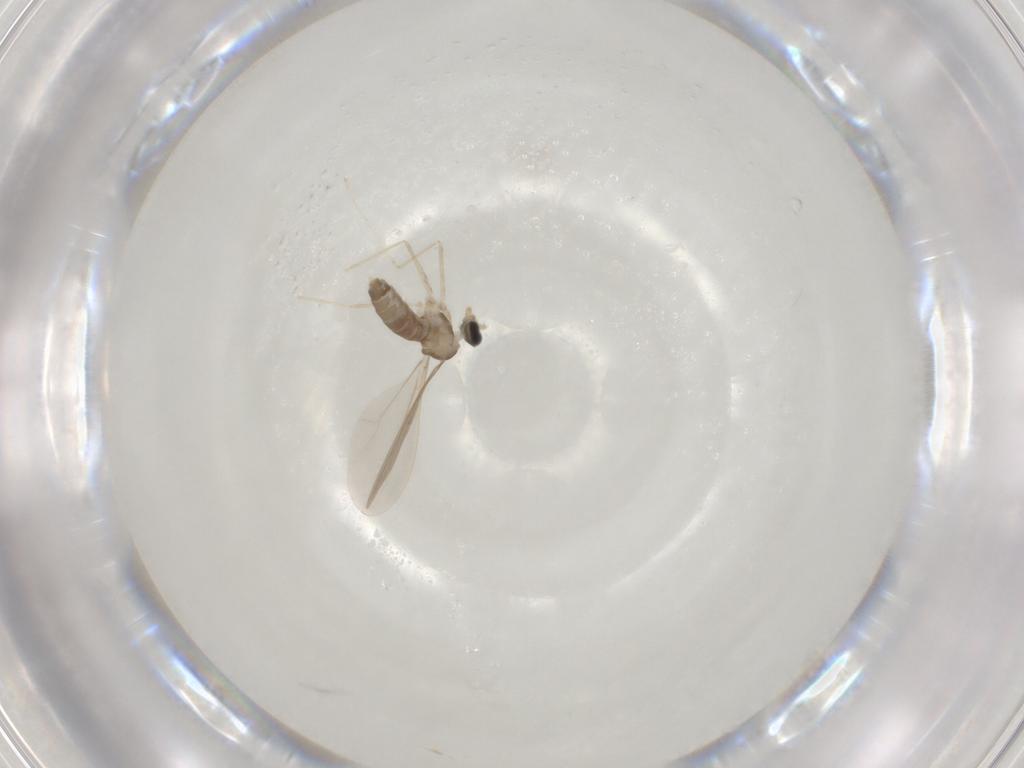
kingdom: Animalia
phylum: Arthropoda
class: Insecta
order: Diptera
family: Cecidomyiidae
